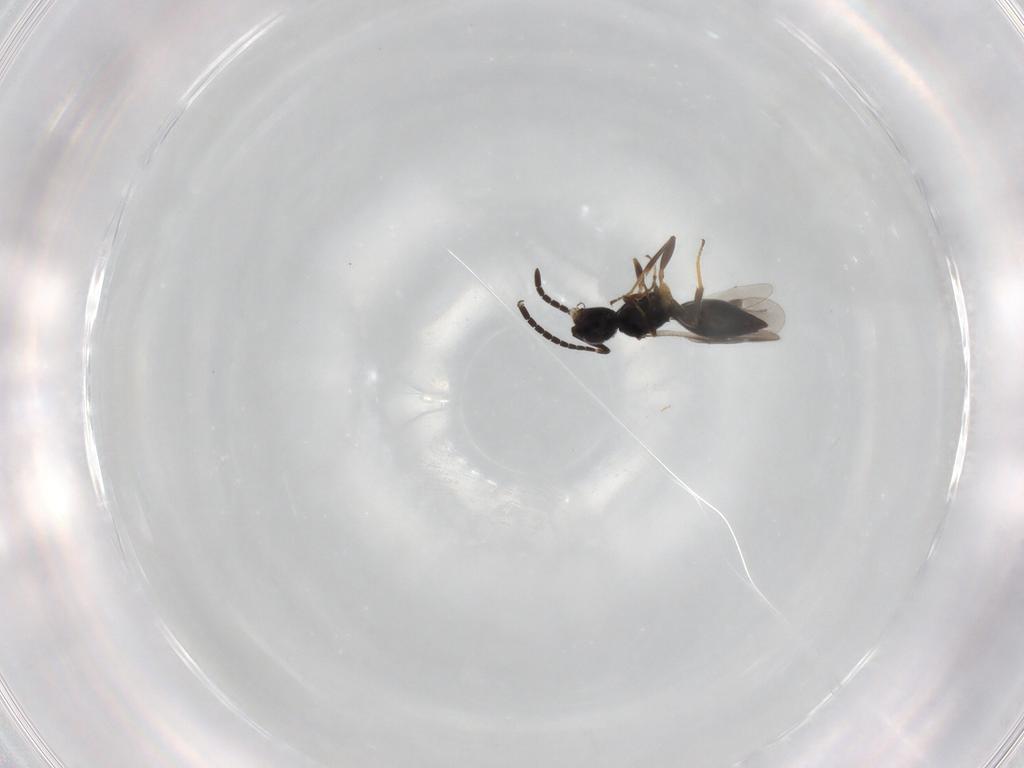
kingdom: Animalia
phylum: Arthropoda
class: Insecta
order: Hymenoptera
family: Megaspilidae
